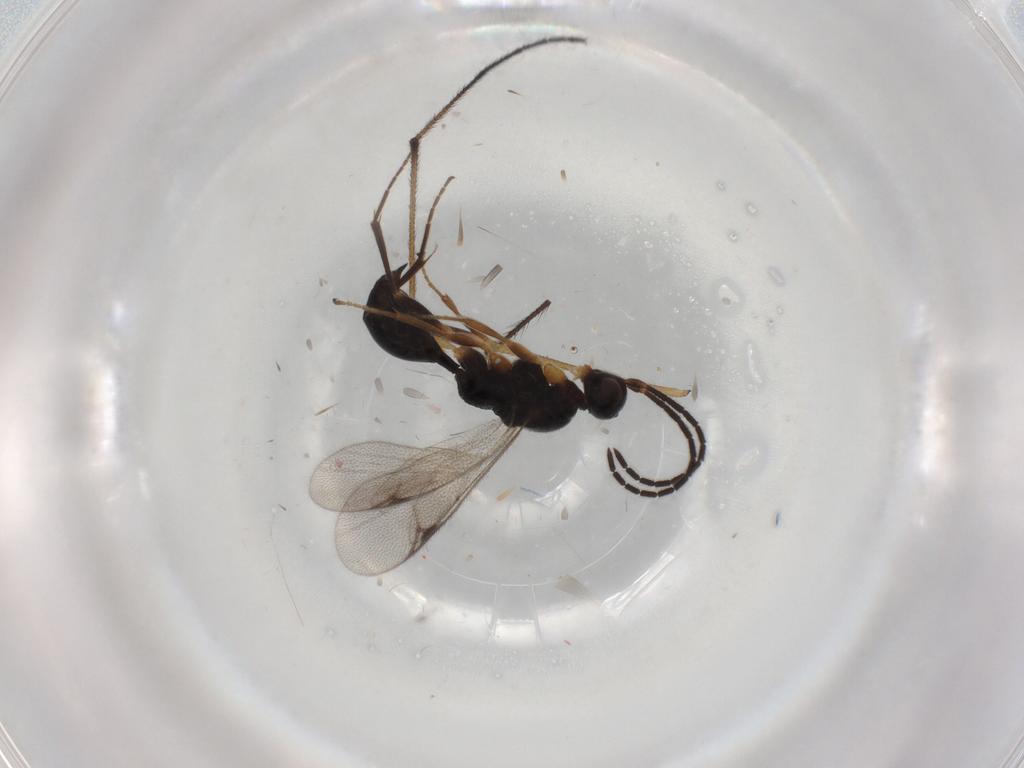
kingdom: Animalia
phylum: Arthropoda
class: Insecta
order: Hymenoptera
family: Proctotrupidae
